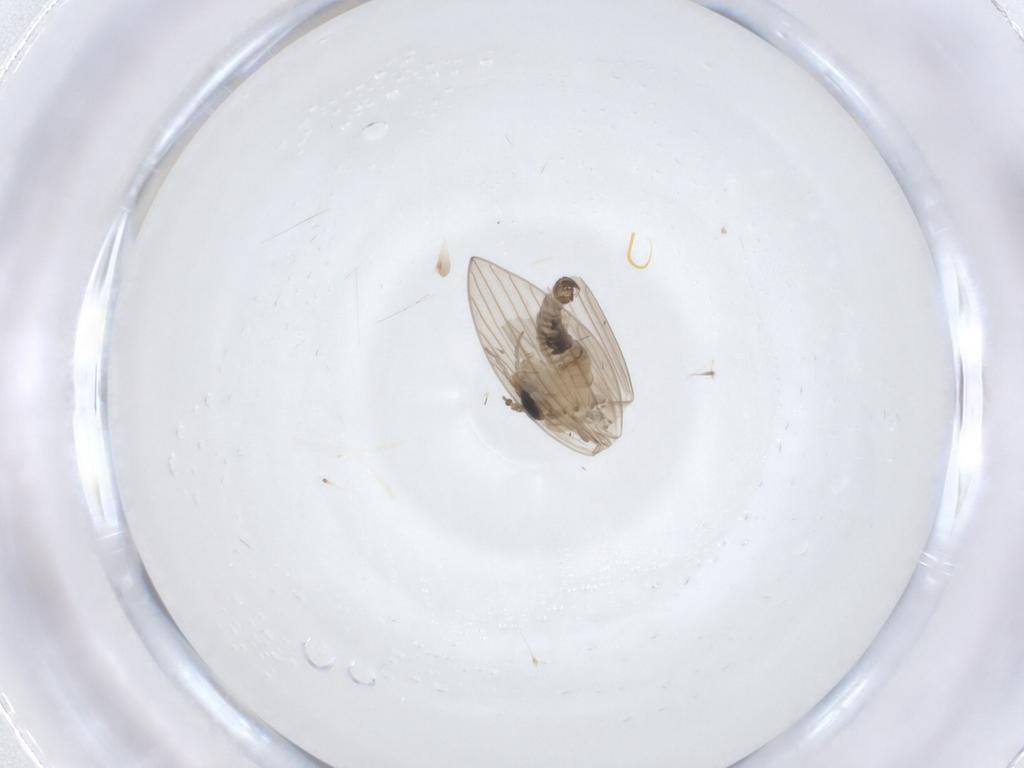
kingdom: Animalia
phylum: Arthropoda
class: Insecta
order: Diptera
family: Psychodidae
